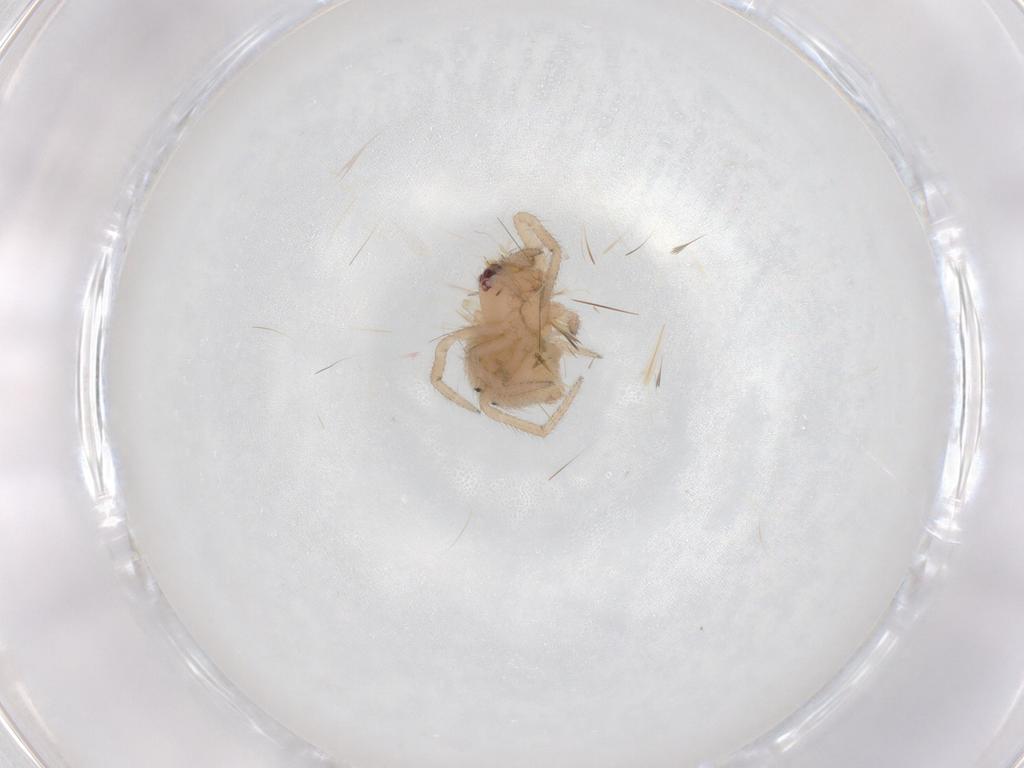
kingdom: Animalia
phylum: Arthropoda
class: Arachnida
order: Araneae
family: Theridiidae
